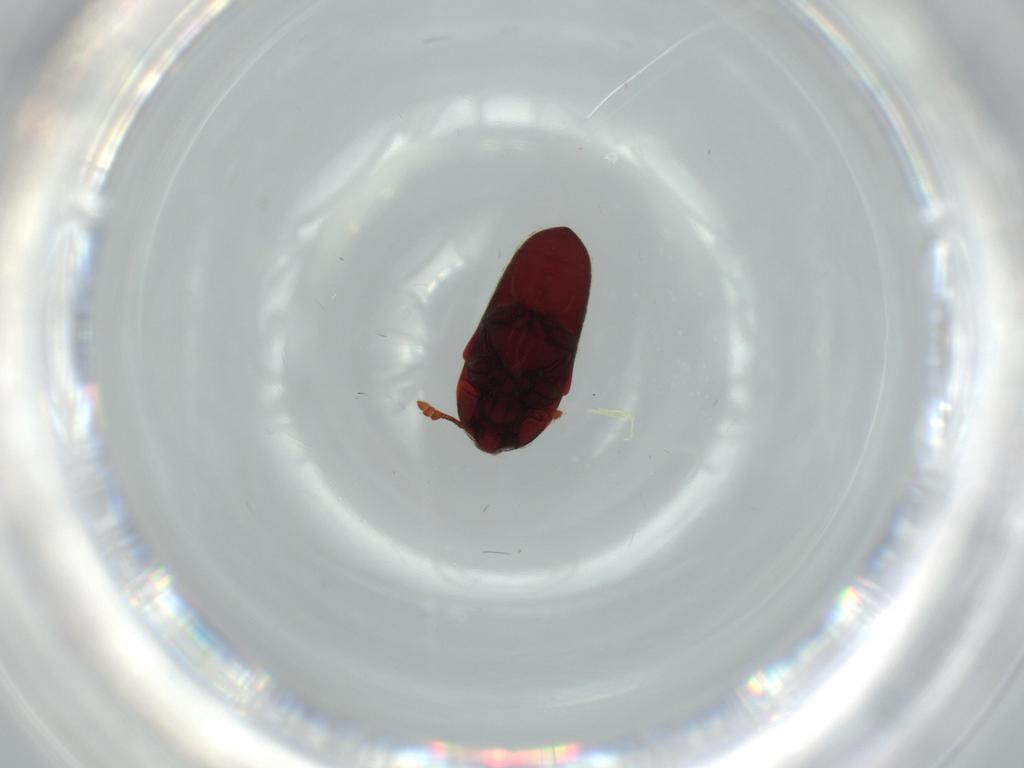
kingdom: Animalia
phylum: Arthropoda
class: Insecta
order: Coleoptera
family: Throscidae
